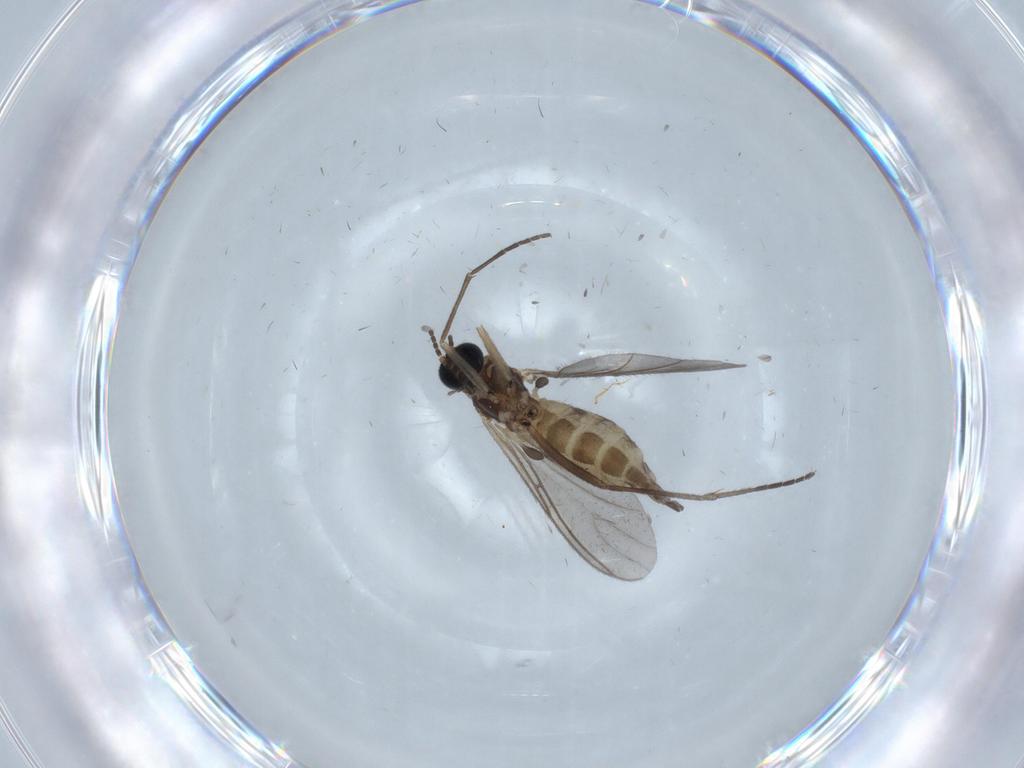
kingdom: Animalia
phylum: Arthropoda
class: Insecta
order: Diptera
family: Sciaridae
